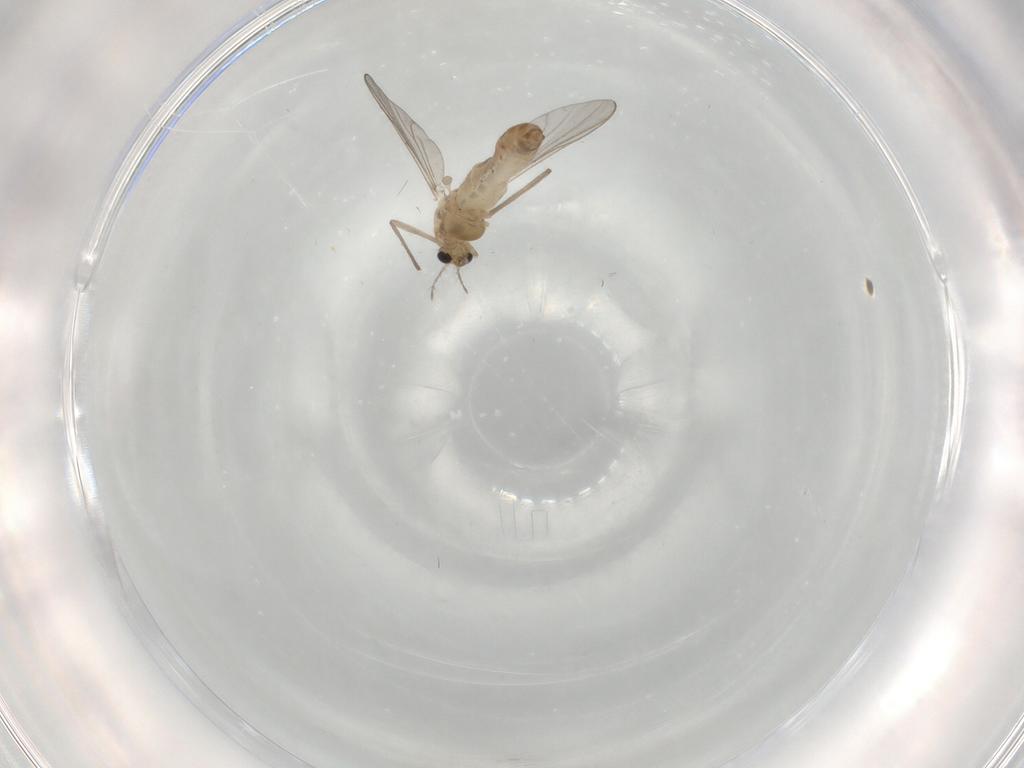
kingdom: Animalia
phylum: Arthropoda
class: Insecta
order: Diptera
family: Chironomidae
